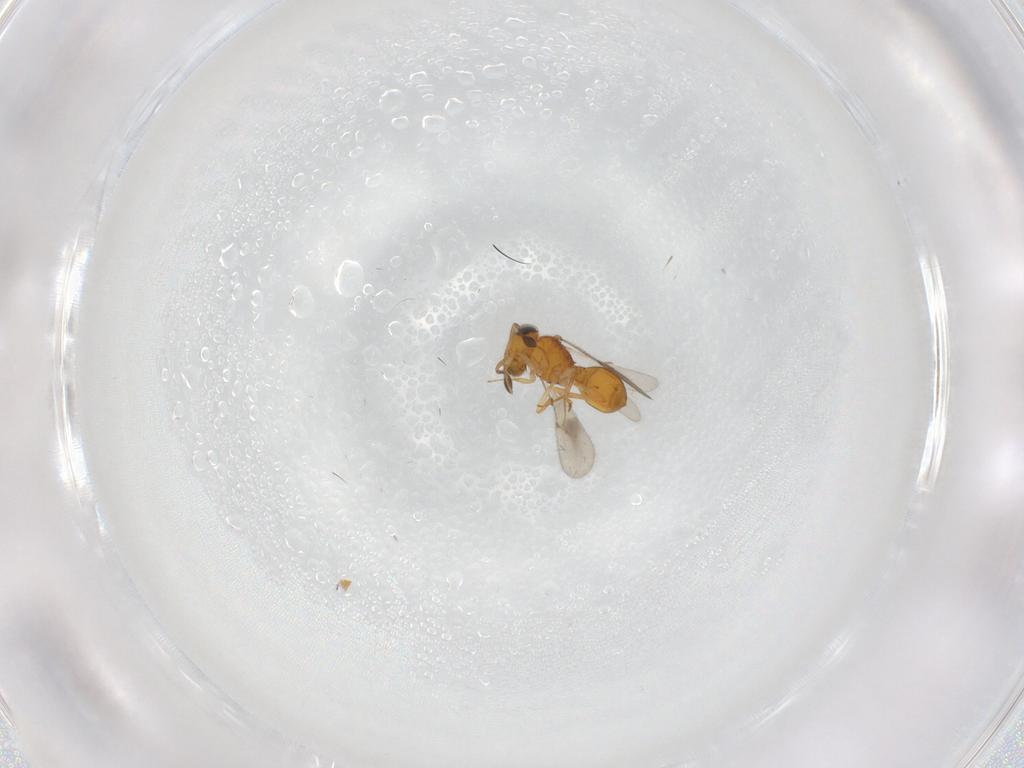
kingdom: Animalia
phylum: Arthropoda
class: Insecta
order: Hymenoptera
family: Scelionidae
